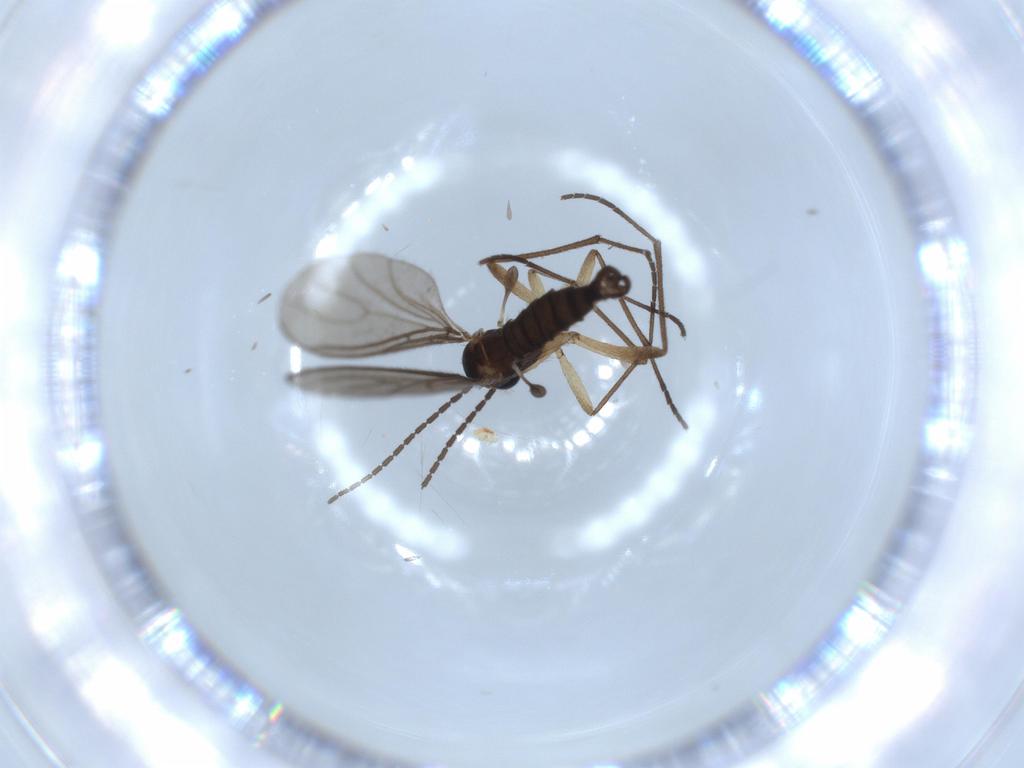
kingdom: Animalia
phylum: Arthropoda
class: Insecta
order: Diptera
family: Sciaridae
